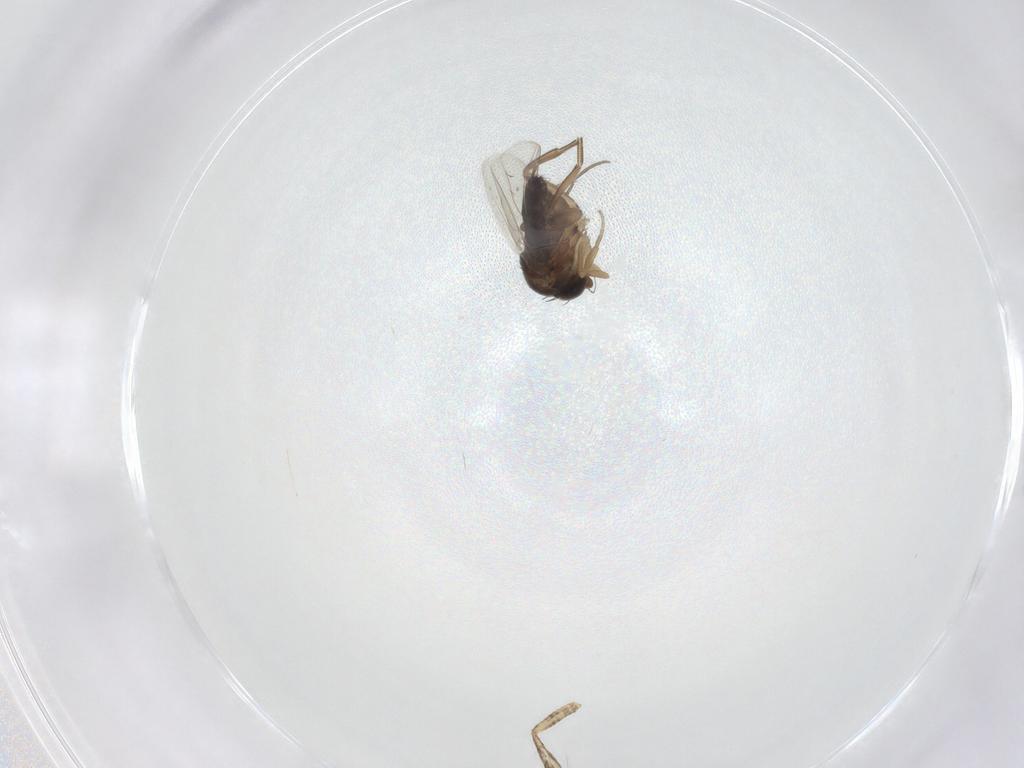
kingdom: Animalia
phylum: Arthropoda
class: Insecta
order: Diptera
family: Phoridae
